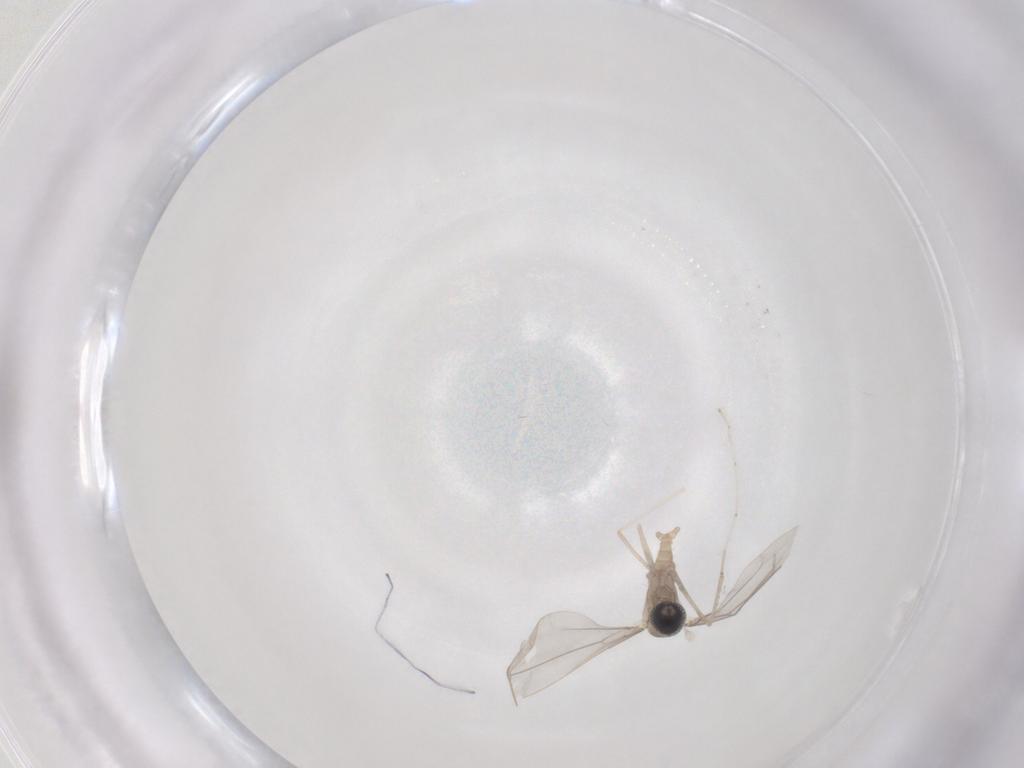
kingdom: Animalia
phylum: Arthropoda
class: Insecta
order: Diptera
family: Cecidomyiidae
